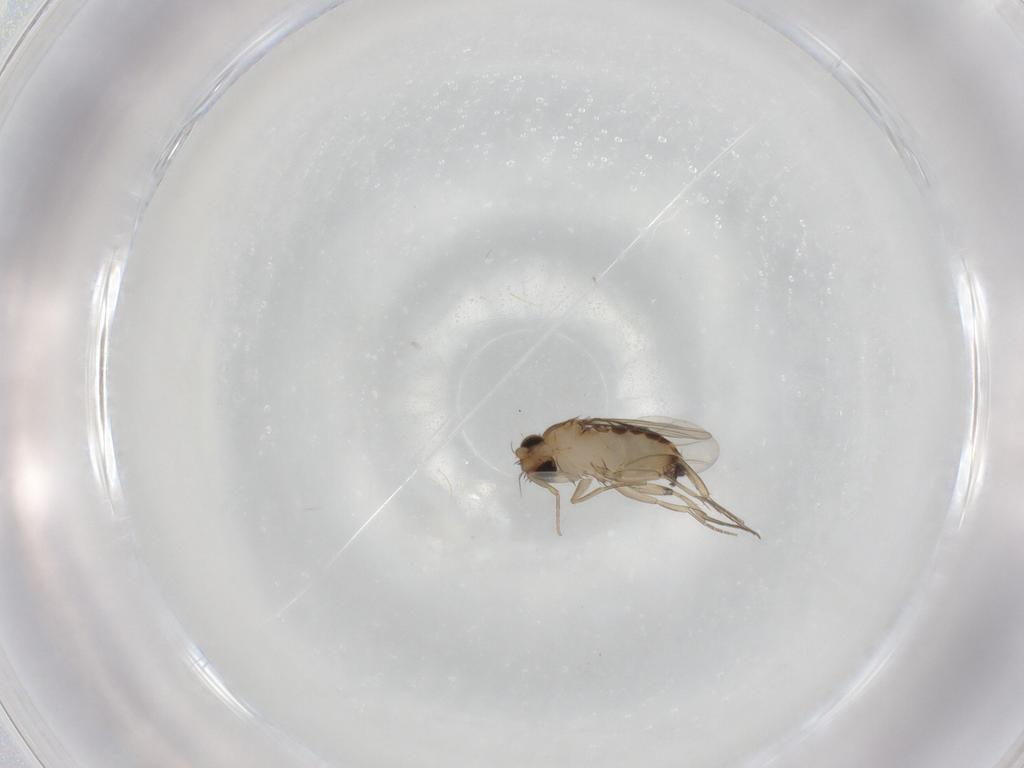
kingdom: Animalia
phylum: Arthropoda
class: Insecta
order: Diptera
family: Phoridae
